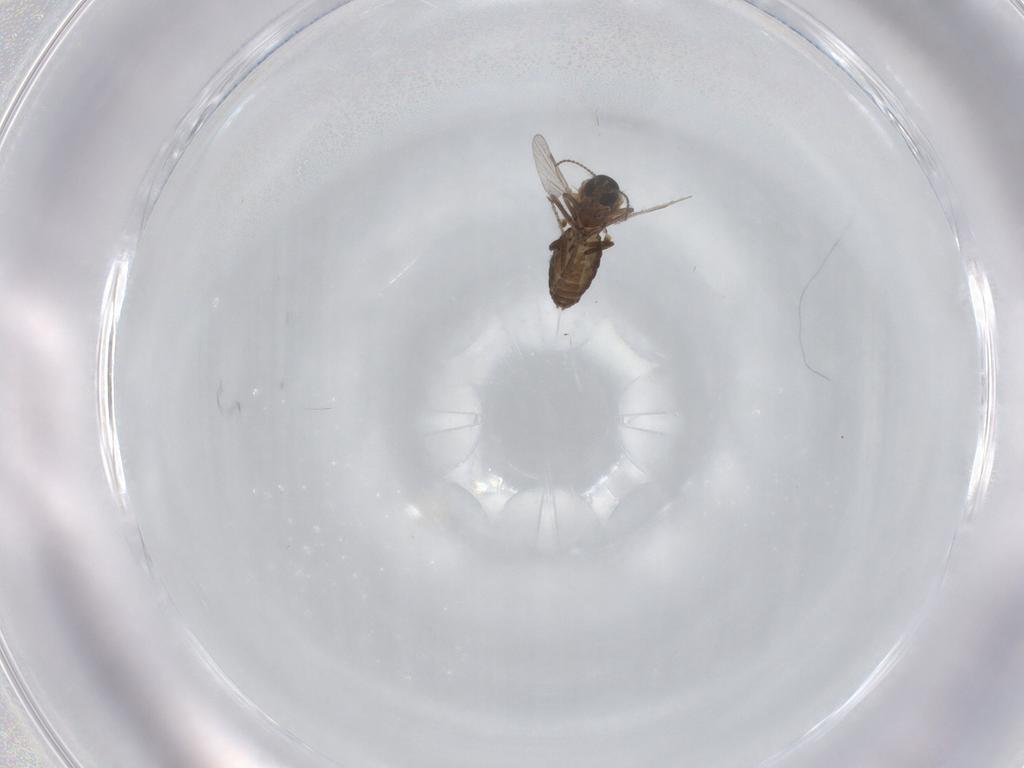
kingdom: Animalia
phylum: Arthropoda
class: Insecta
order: Diptera
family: Ceratopogonidae
